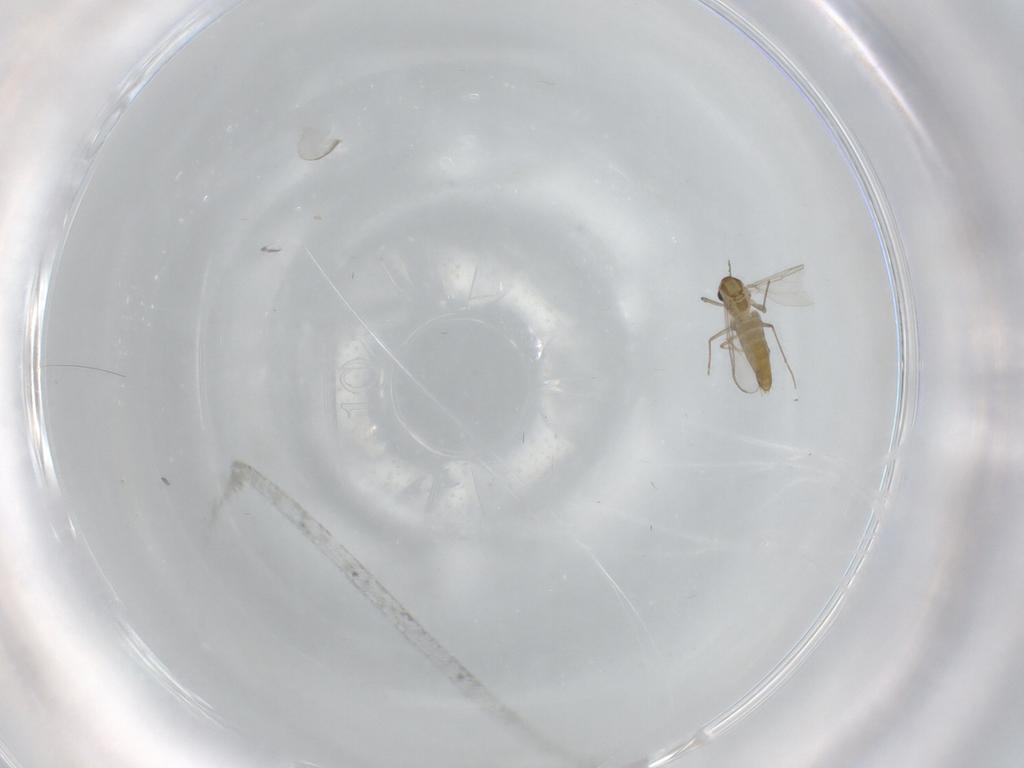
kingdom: Animalia
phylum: Arthropoda
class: Insecta
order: Diptera
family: Chironomidae
